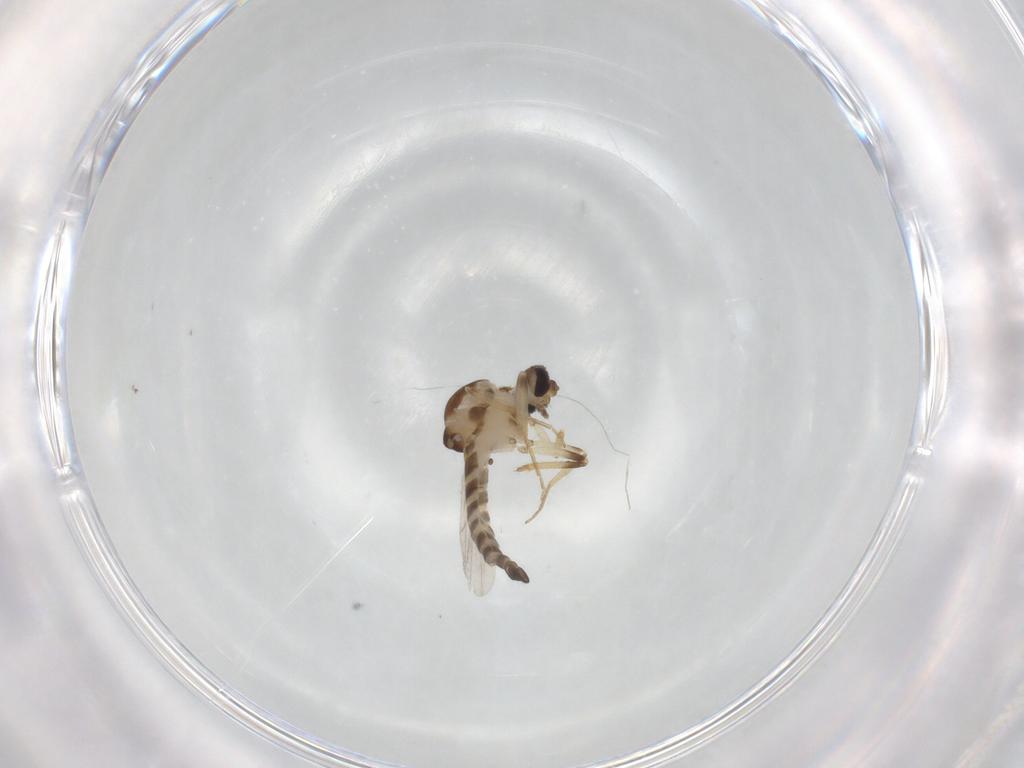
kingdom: Animalia
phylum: Arthropoda
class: Insecta
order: Diptera
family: Ceratopogonidae
